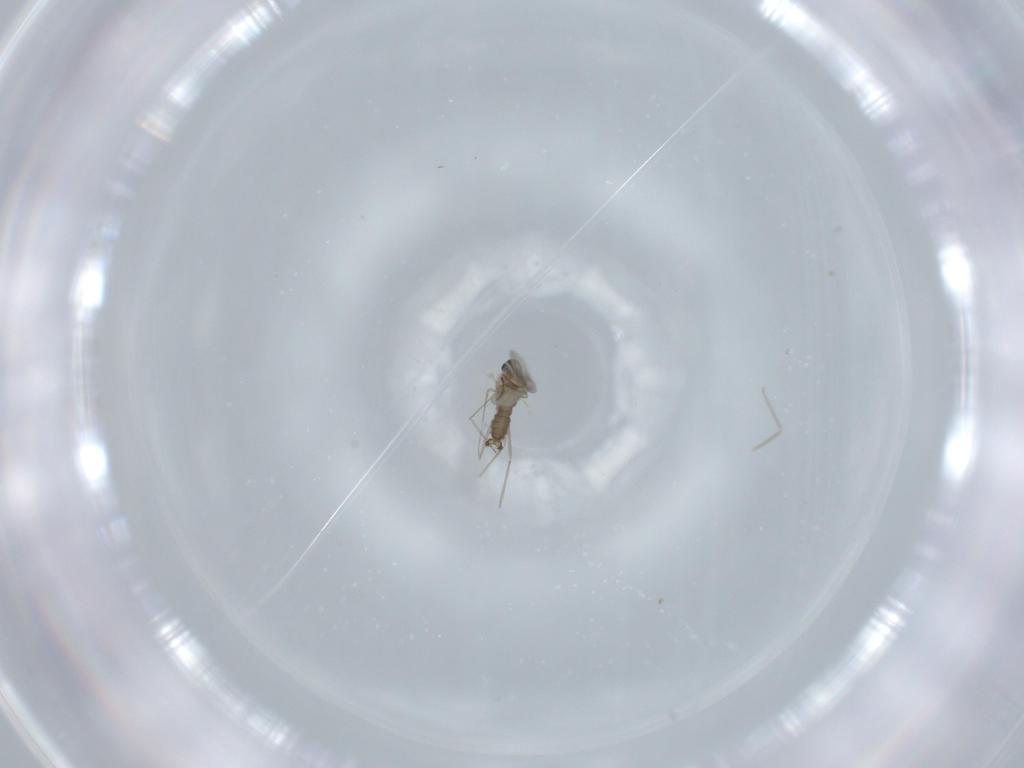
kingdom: Animalia
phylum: Arthropoda
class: Insecta
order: Diptera
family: Cecidomyiidae
